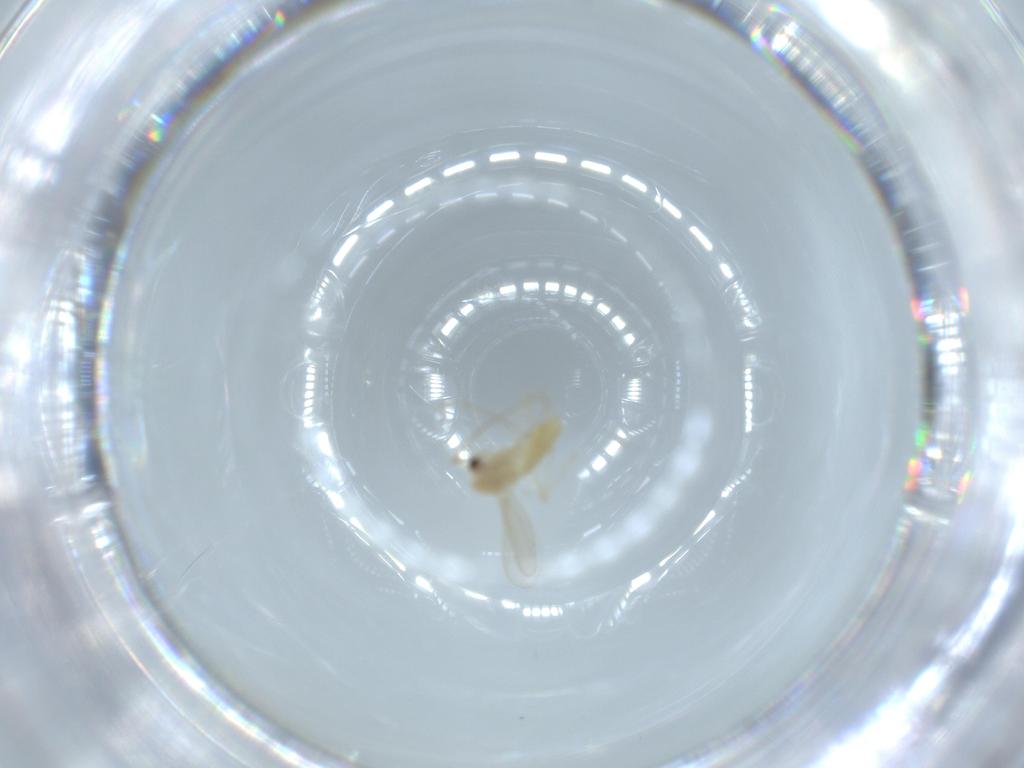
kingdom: Animalia
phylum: Arthropoda
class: Insecta
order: Diptera
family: Chironomidae
